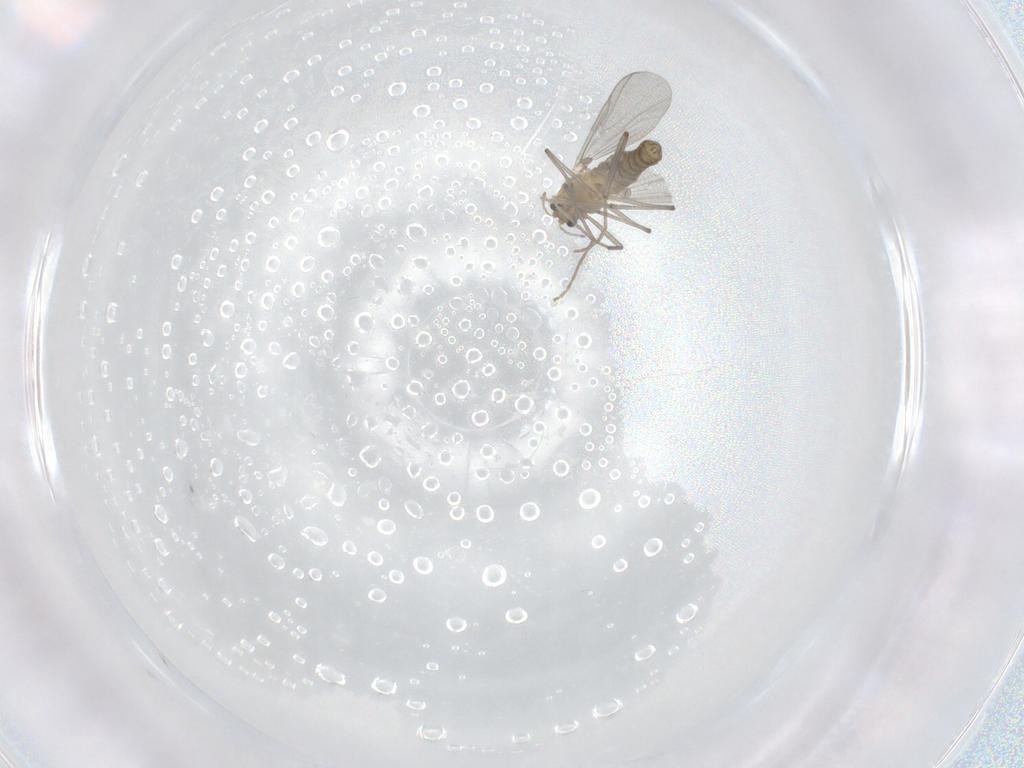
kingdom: Animalia
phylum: Arthropoda
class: Insecta
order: Diptera
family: Chironomidae
